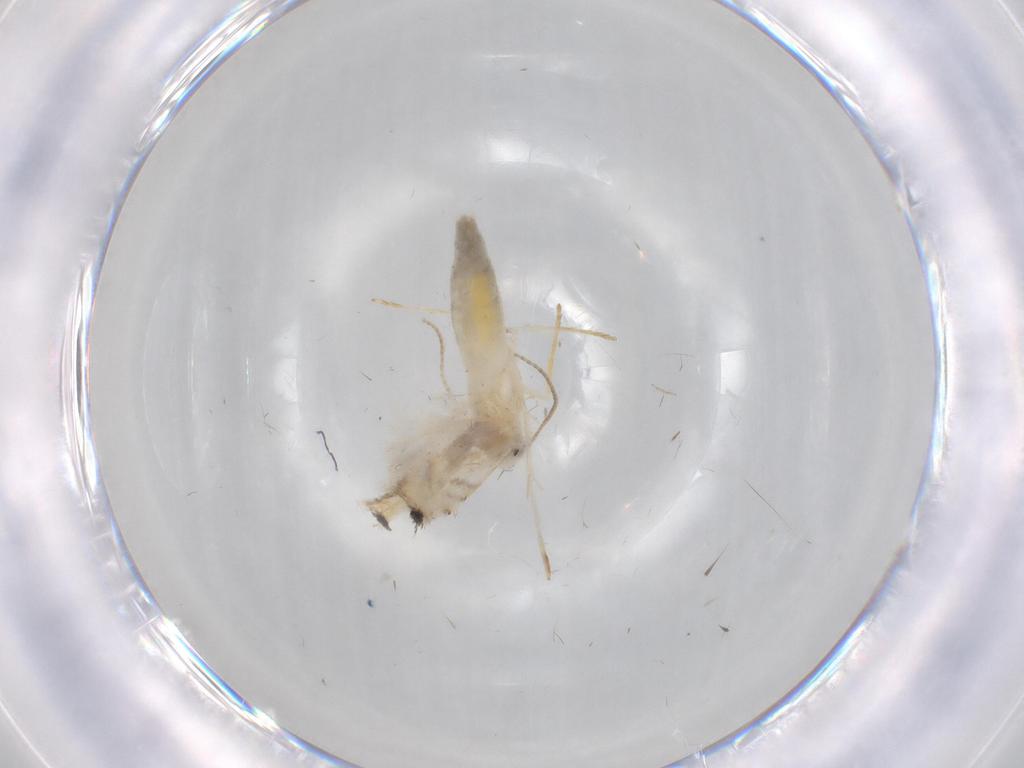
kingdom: Animalia
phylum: Arthropoda
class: Insecta
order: Lepidoptera
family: Gracillariidae
